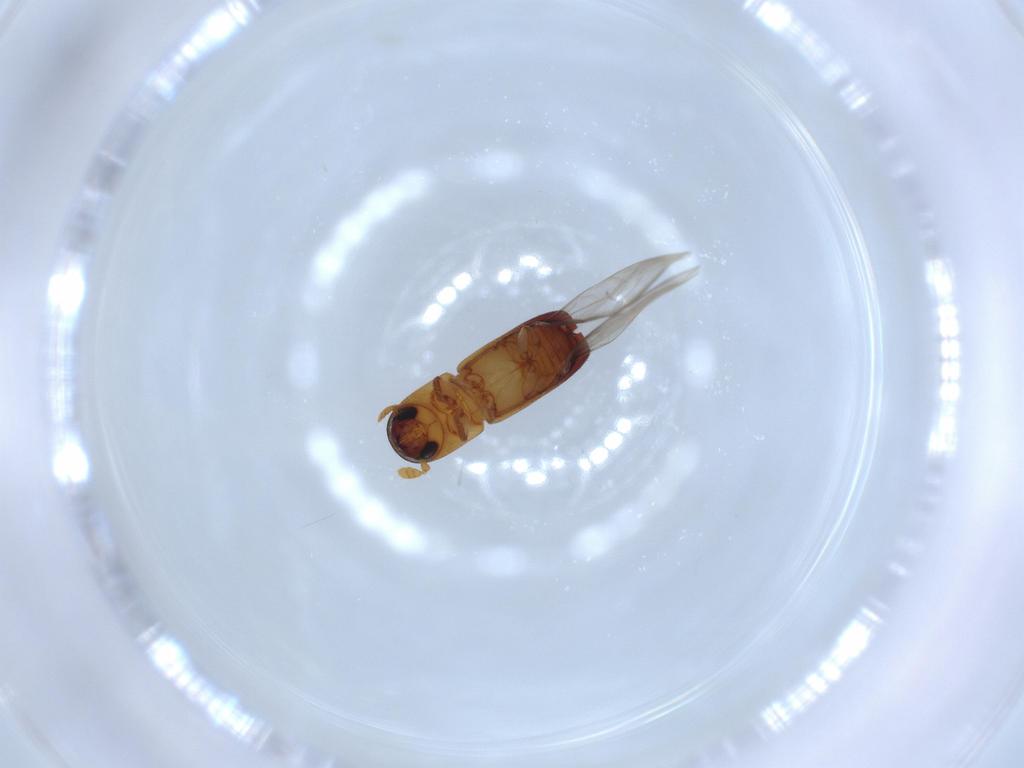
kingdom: Animalia
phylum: Arthropoda
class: Insecta
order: Coleoptera
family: Curculionidae
